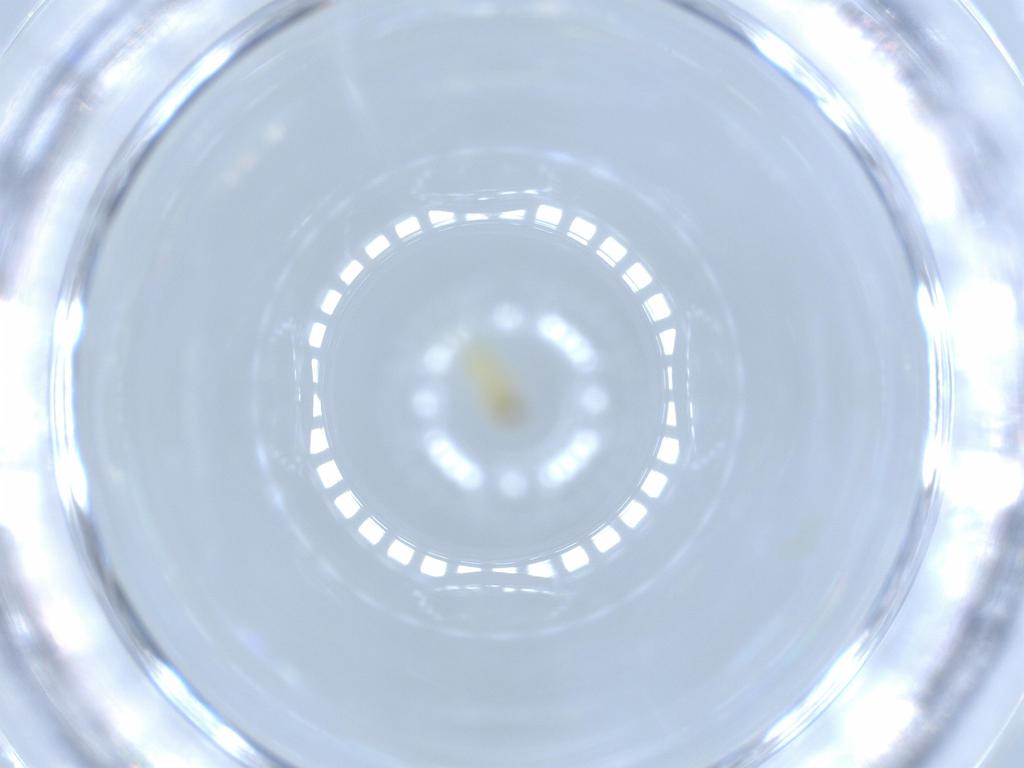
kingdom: Animalia
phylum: Arthropoda
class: Insecta
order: Hemiptera
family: Aleyrodidae
